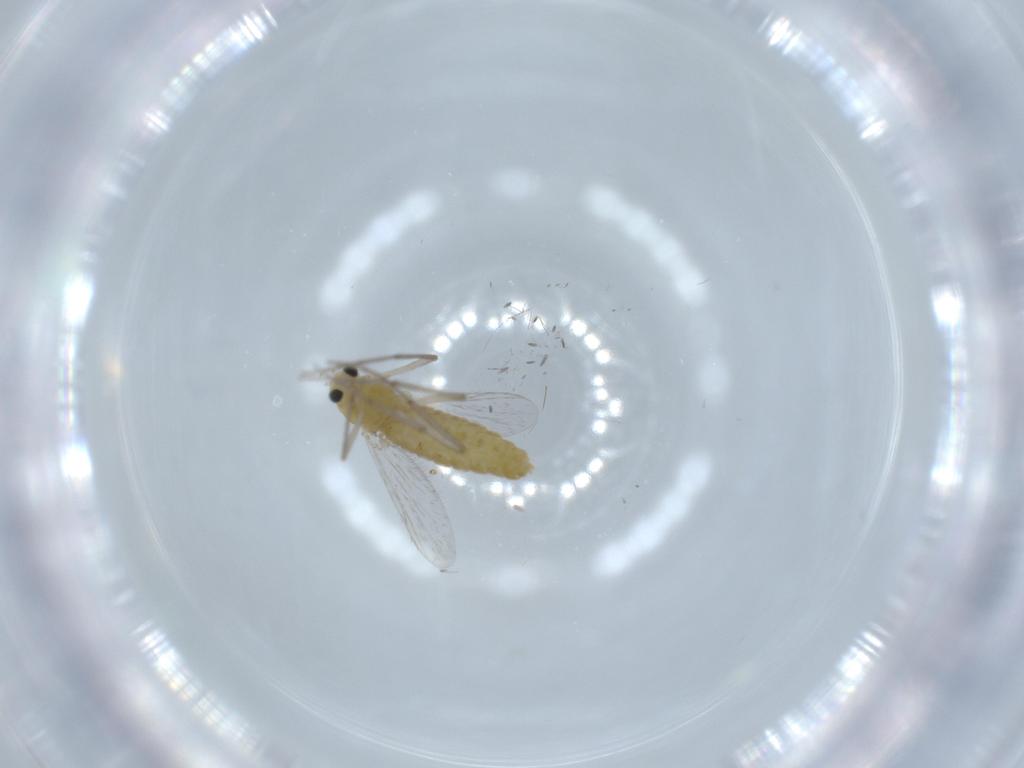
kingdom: Animalia
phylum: Arthropoda
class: Insecta
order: Diptera
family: Chironomidae
